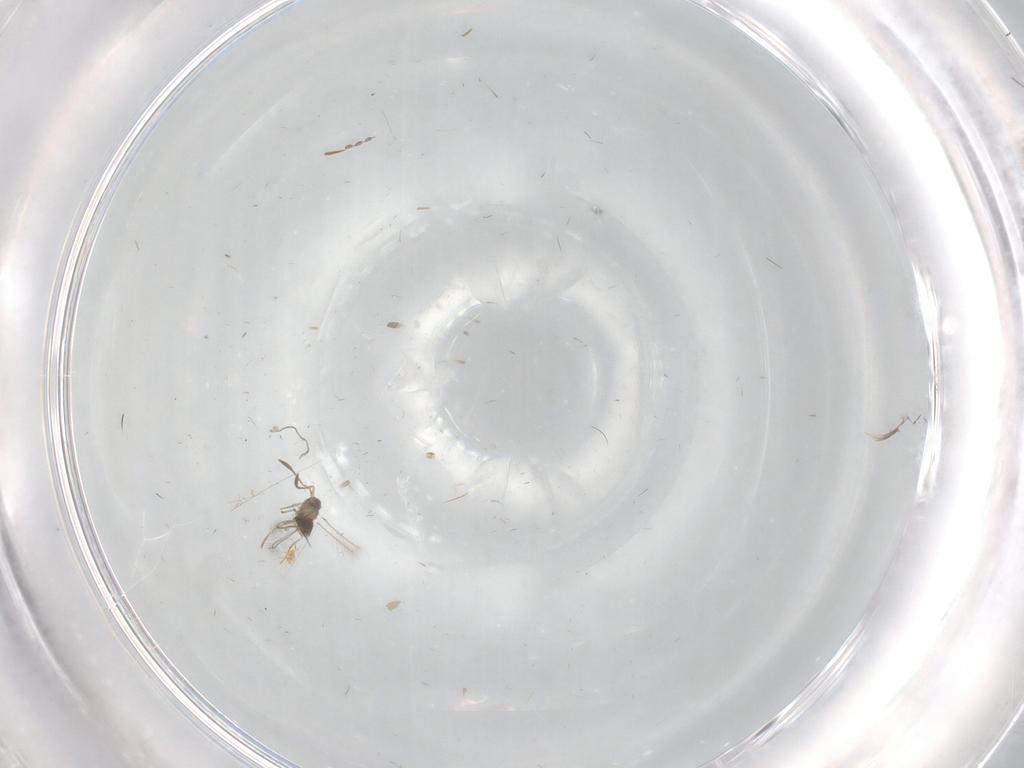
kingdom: Animalia
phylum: Arthropoda
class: Insecta
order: Hymenoptera
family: Mymaridae
